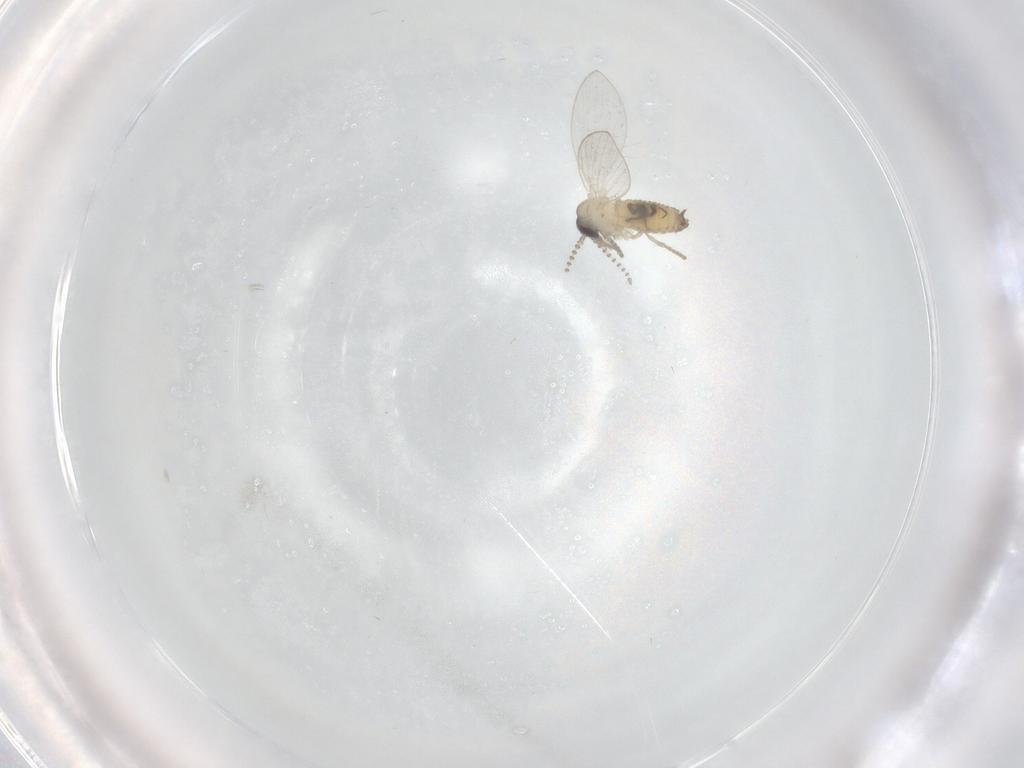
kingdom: Animalia
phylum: Arthropoda
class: Insecta
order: Diptera
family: Psychodidae
